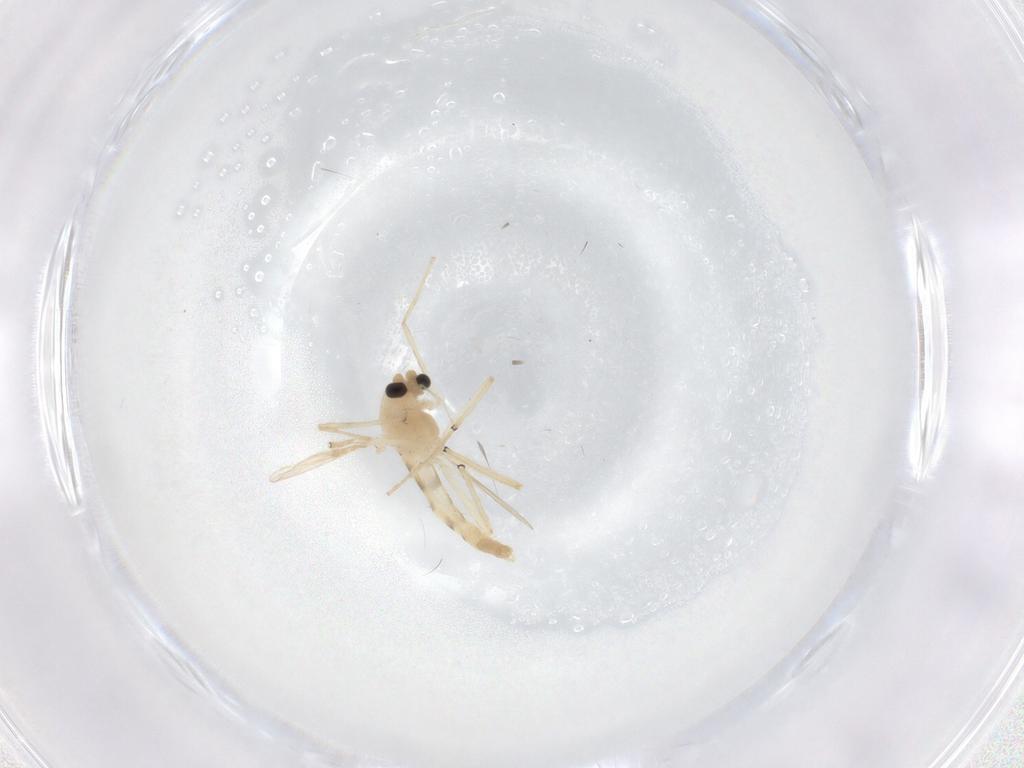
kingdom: Animalia
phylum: Arthropoda
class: Insecta
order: Diptera
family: Chironomidae
